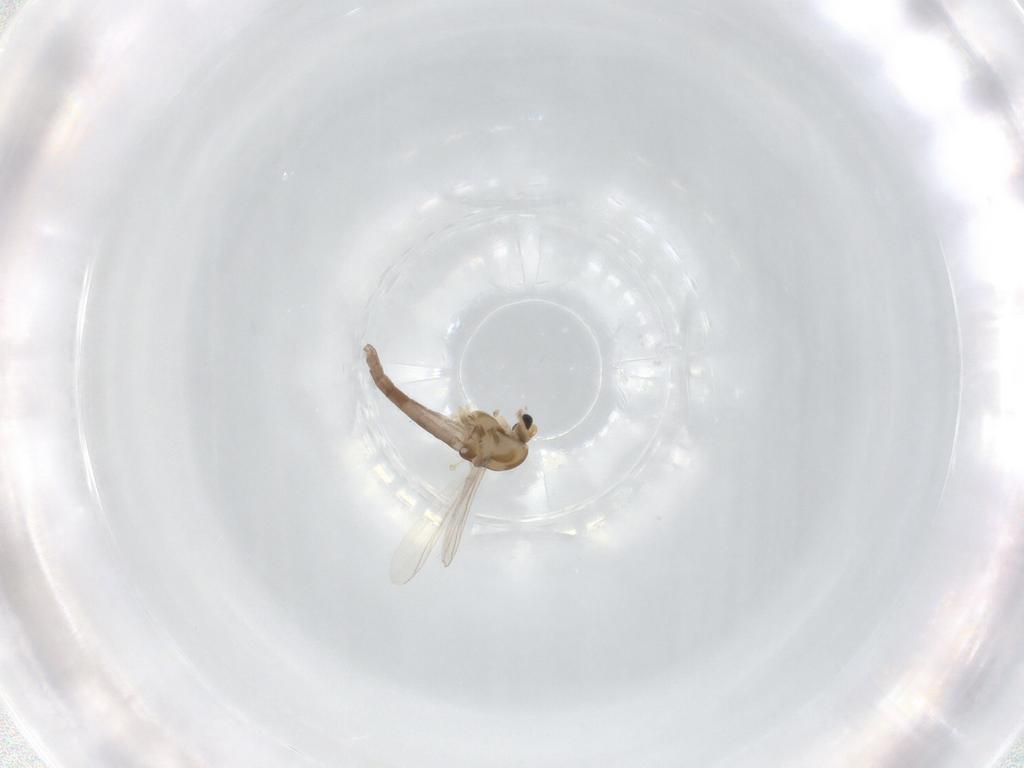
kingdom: Animalia
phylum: Arthropoda
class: Insecta
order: Diptera
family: Chironomidae
